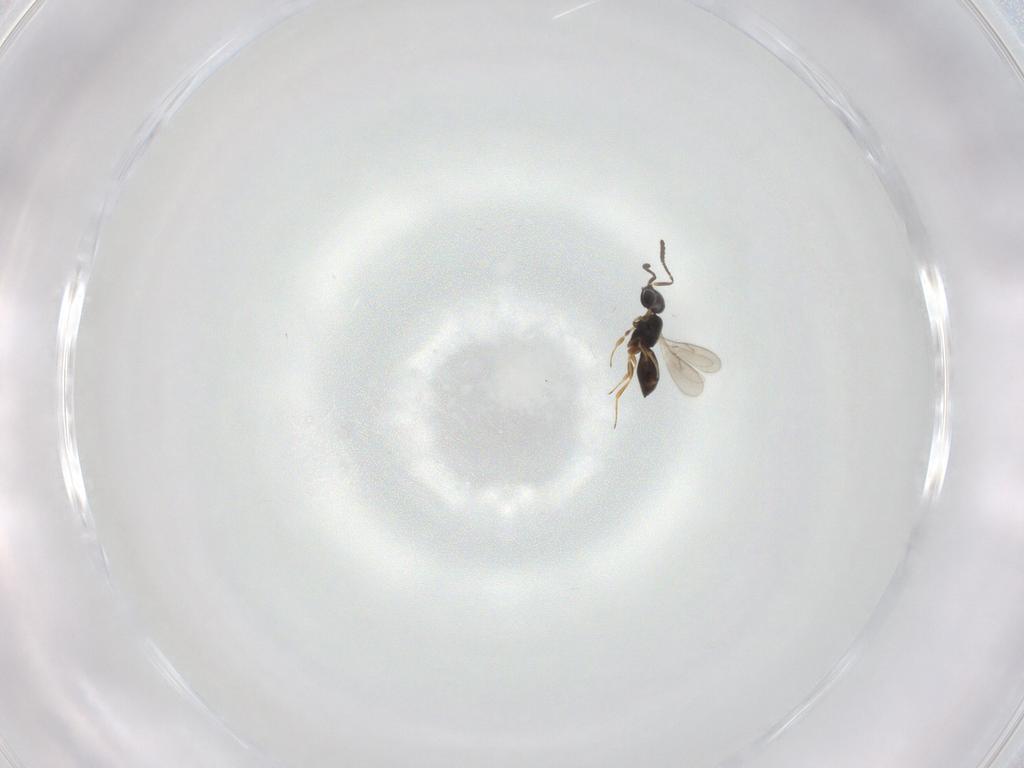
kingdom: Animalia
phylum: Arthropoda
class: Insecta
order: Hymenoptera
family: Scelionidae
